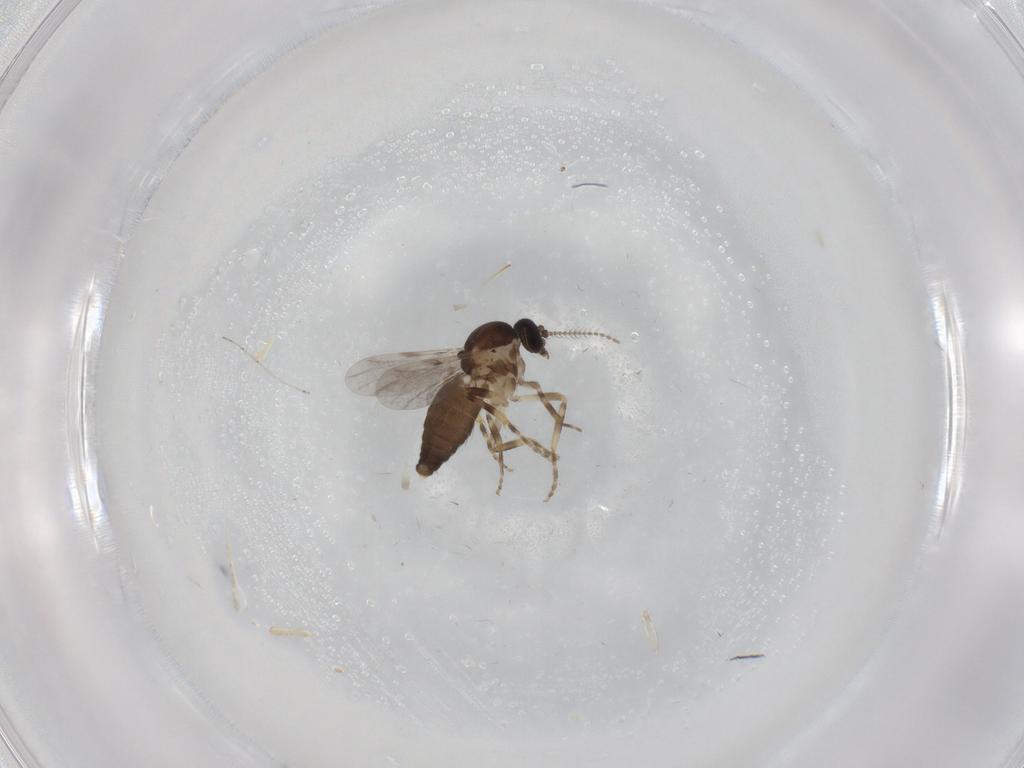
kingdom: Animalia
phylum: Arthropoda
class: Insecta
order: Diptera
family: Ceratopogonidae
